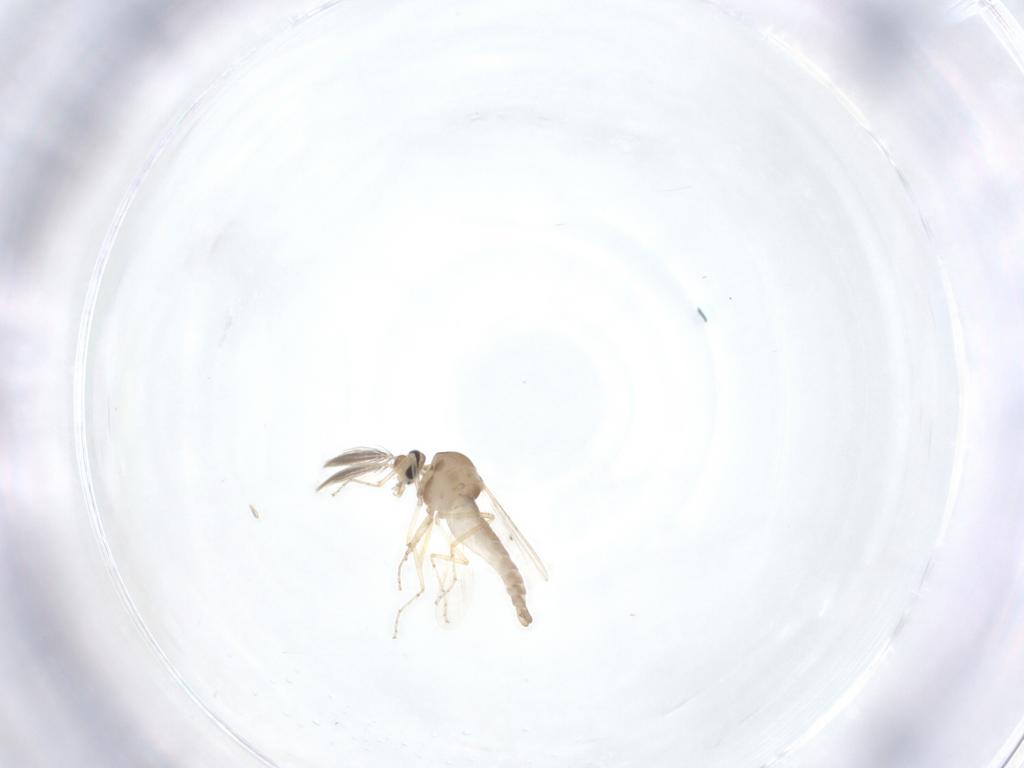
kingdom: Animalia
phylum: Arthropoda
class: Insecta
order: Diptera
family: Ceratopogonidae
